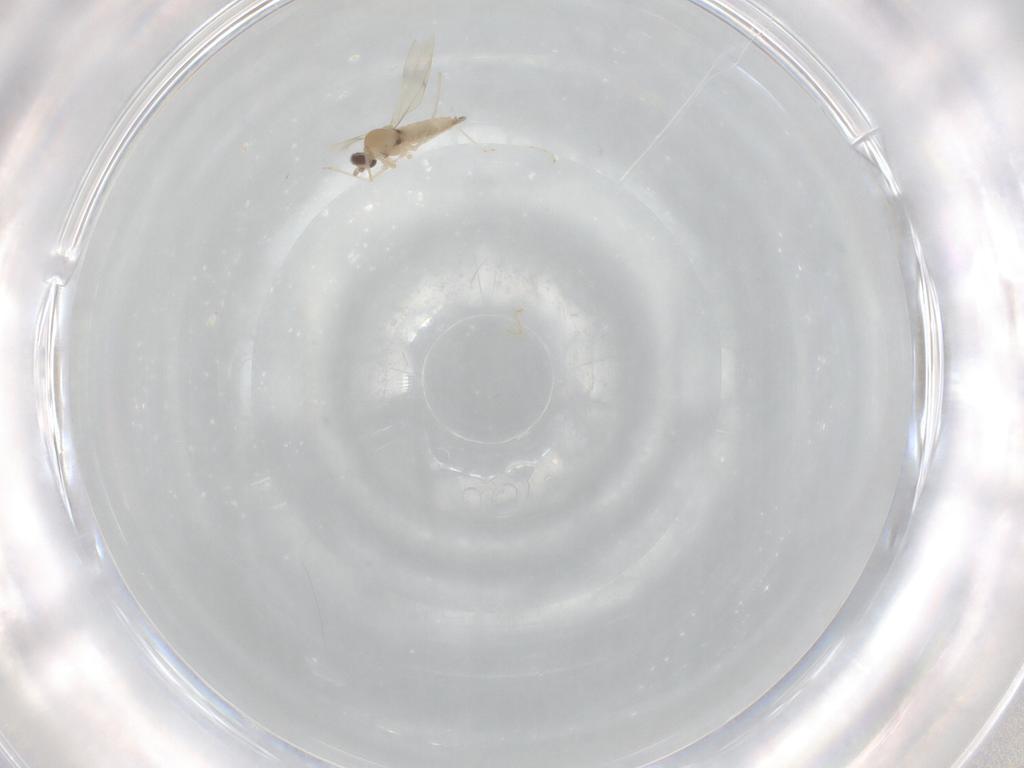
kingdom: Animalia
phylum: Arthropoda
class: Insecta
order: Diptera
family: Cecidomyiidae
